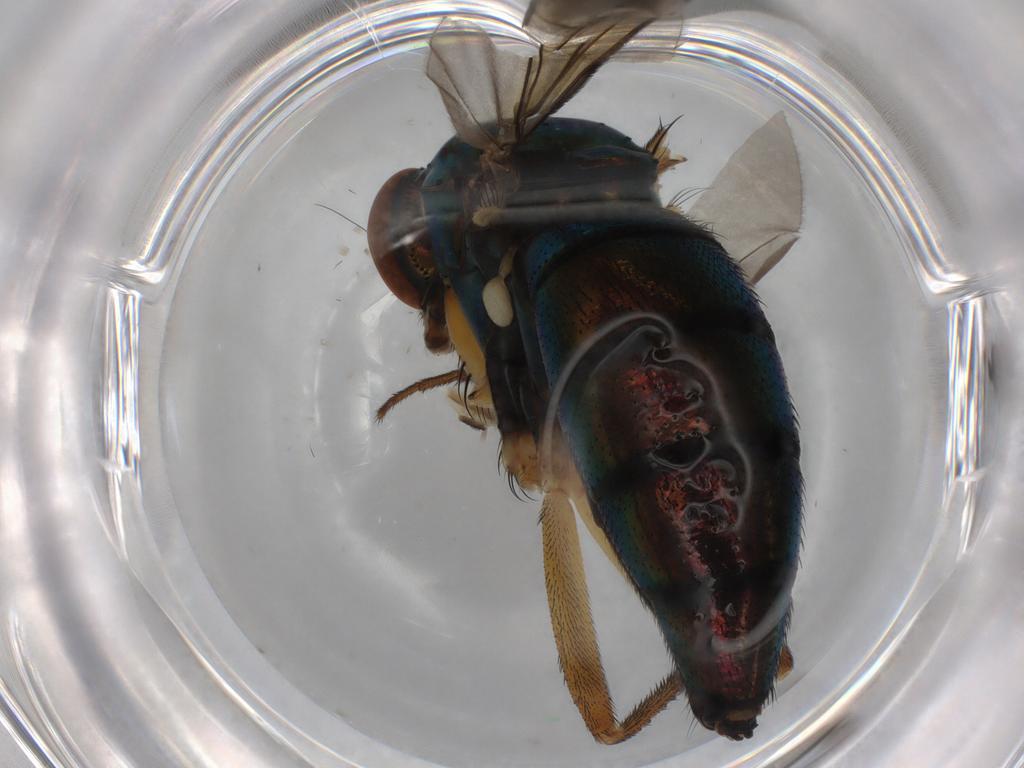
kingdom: Animalia
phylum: Arthropoda
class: Insecta
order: Diptera
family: Dolichopodidae
